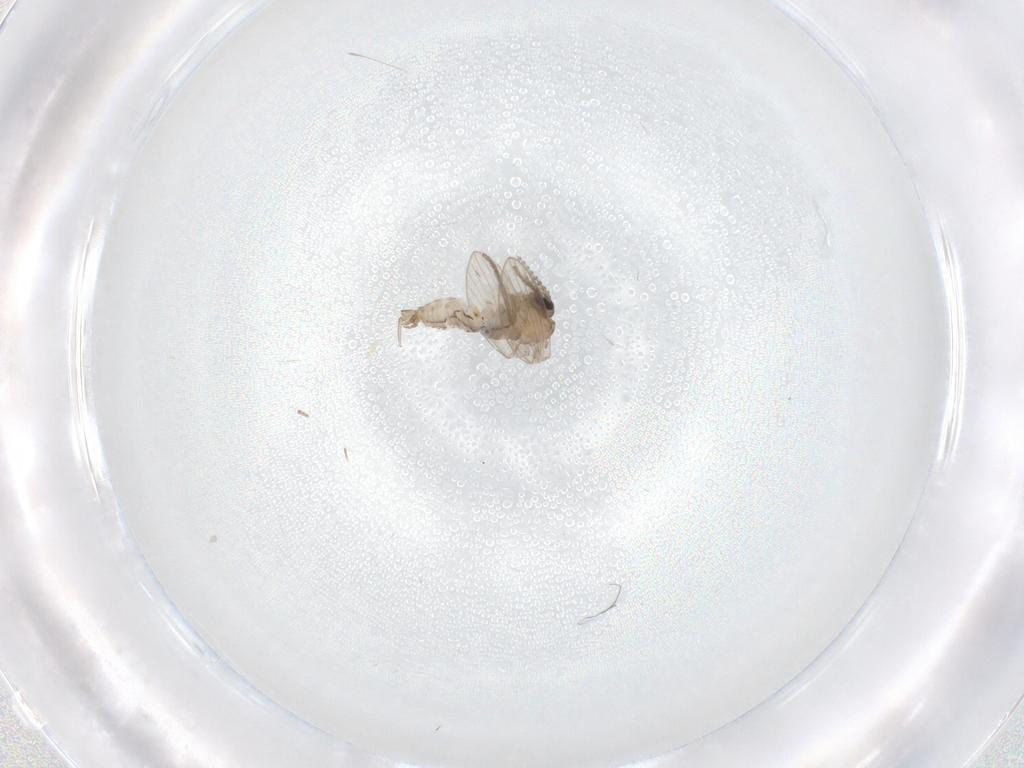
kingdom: Animalia
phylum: Arthropoda
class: Insecta
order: Diptera
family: Psychodidae
